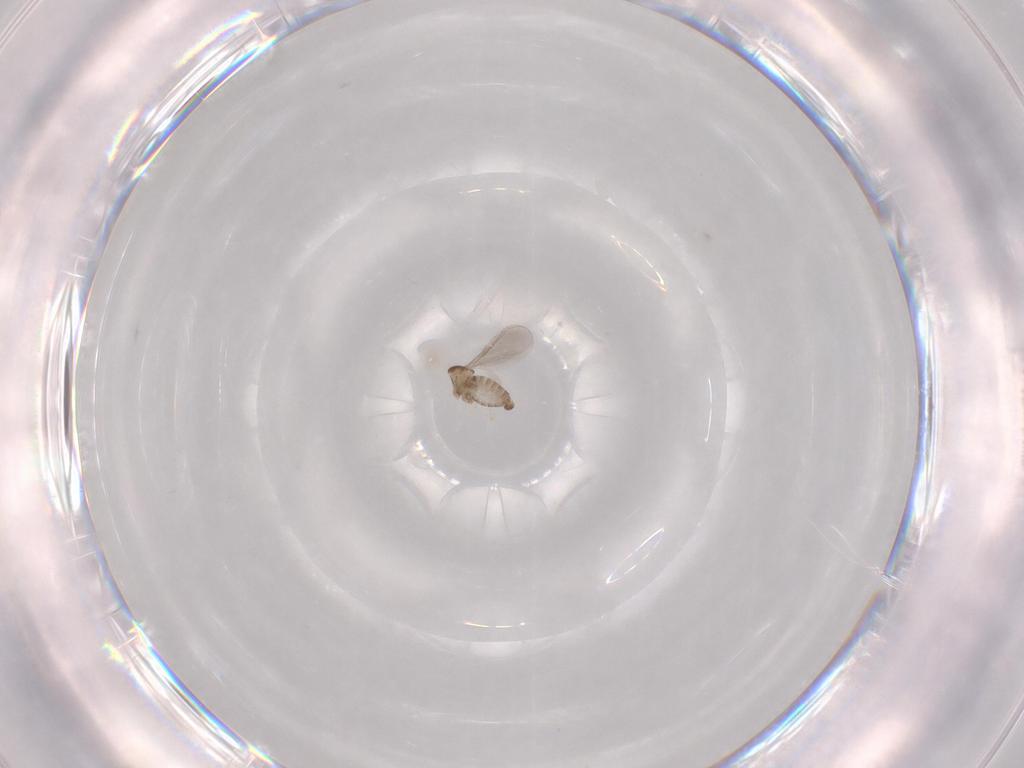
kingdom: Animalia
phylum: Arthropoda
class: Insecta
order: Diptera
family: Cecidomyiidae
